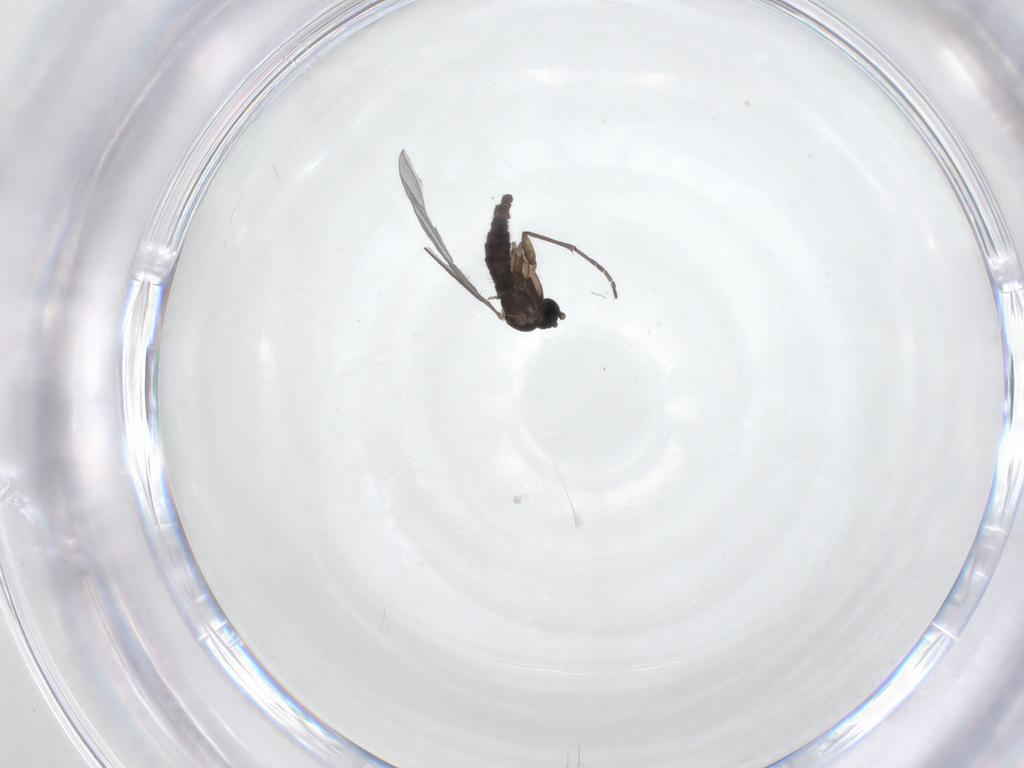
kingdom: Animalia
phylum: Arthropoda
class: Insecta
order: Diptera
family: Sciaridae
